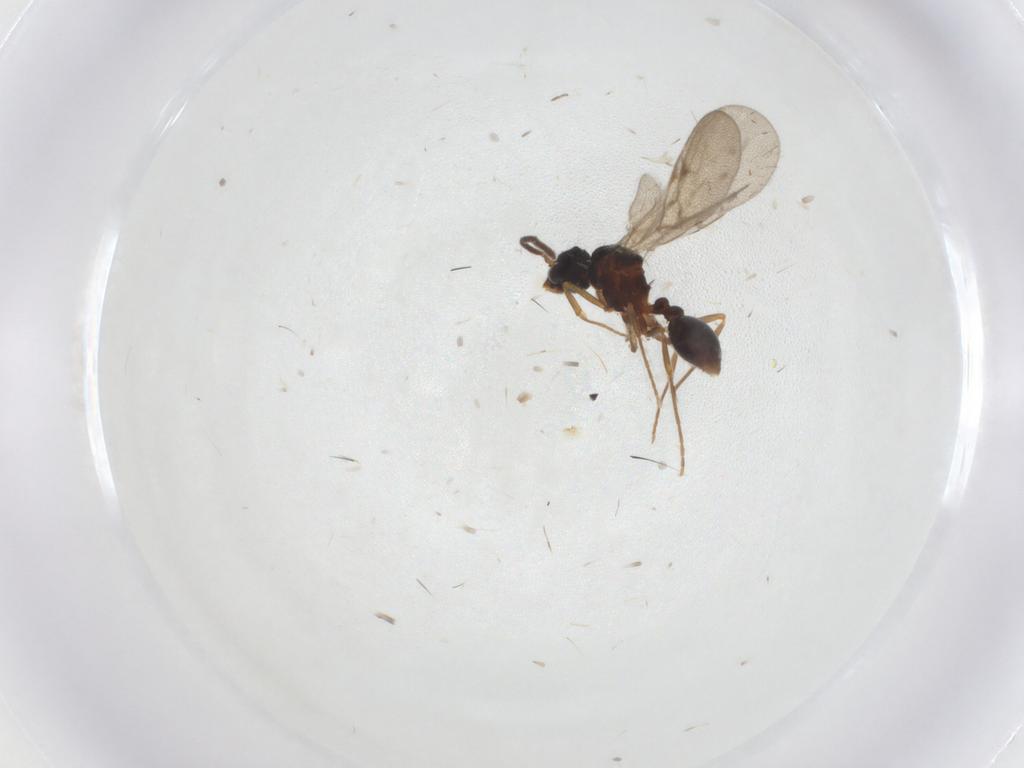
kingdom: Animalia
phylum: Arthropoda
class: Insecta
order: Hymenoptera
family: Formicidae
